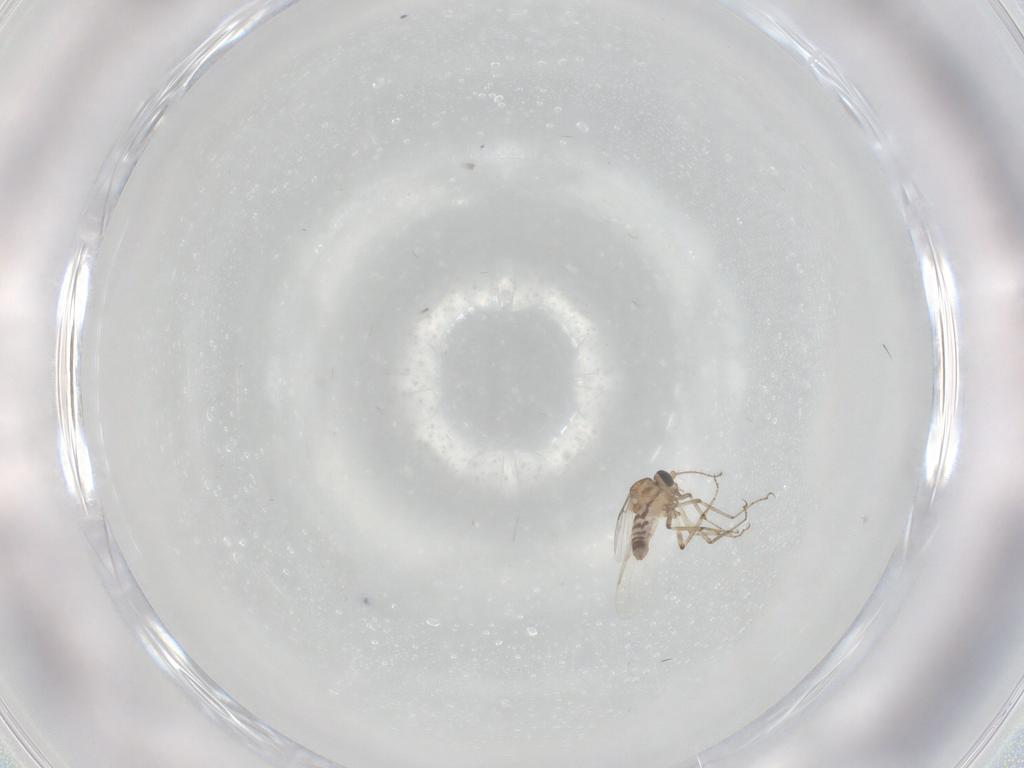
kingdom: Animalia
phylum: Arthropoda
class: Insecta
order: Diptera
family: Ceratopogonidae
